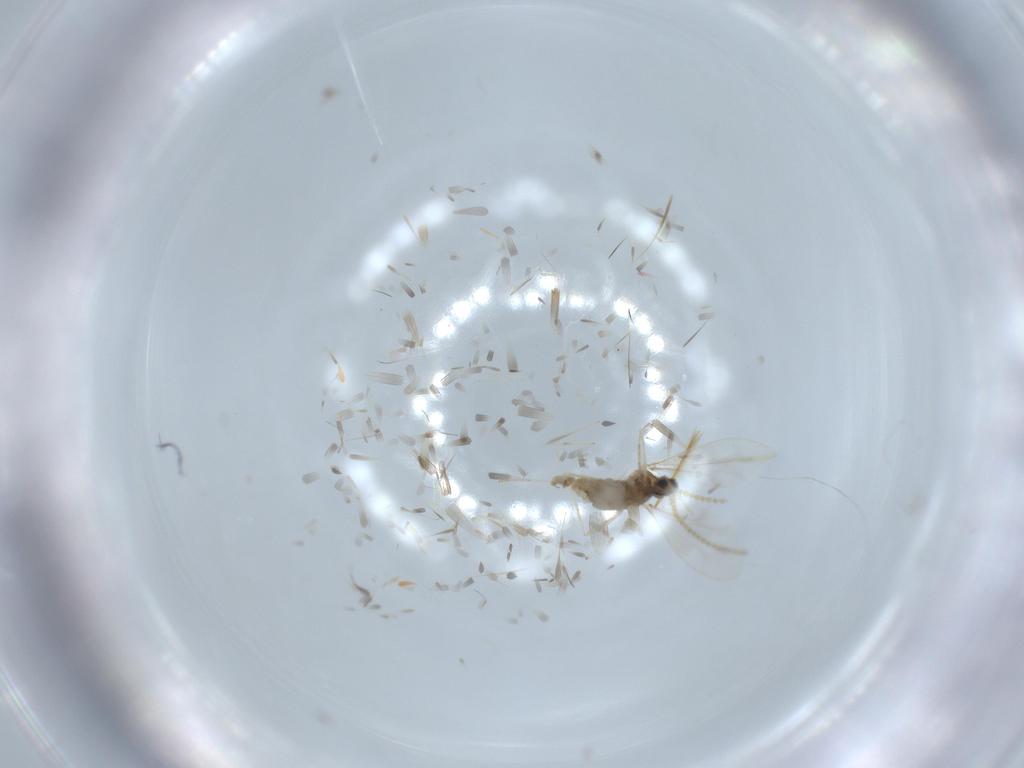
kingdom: Animalia
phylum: Arthropoda
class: Insecta
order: Diptera
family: Cecidomyiidae
